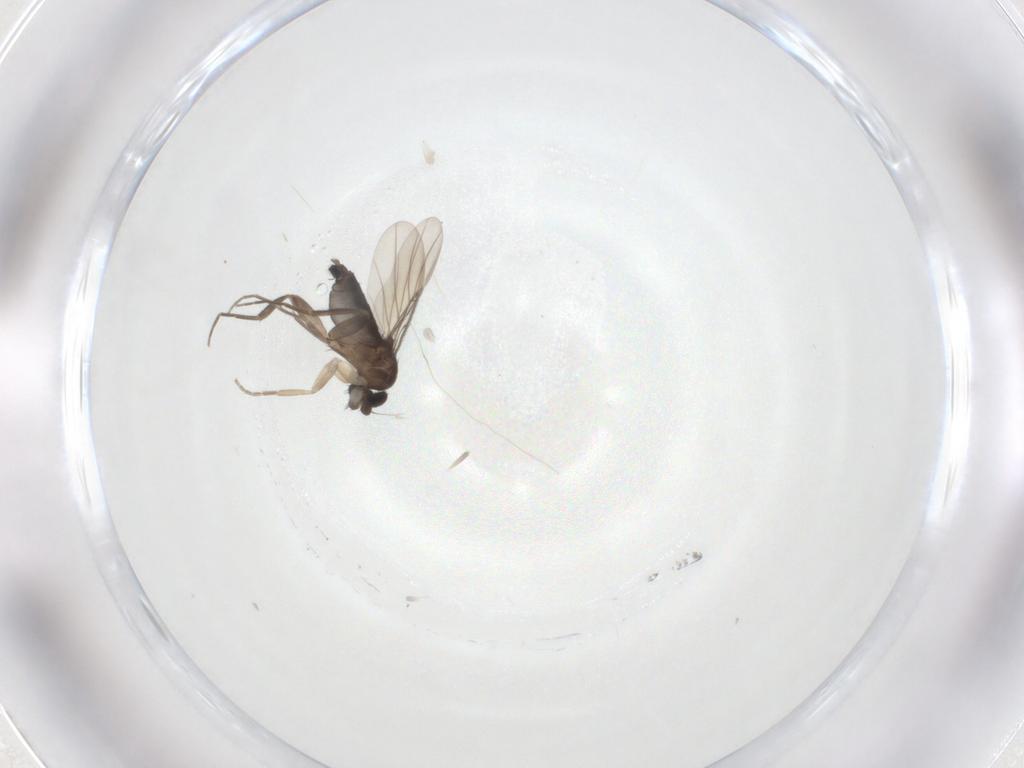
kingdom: Animalia
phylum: Arthropoda
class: Insecta
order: Diptera
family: Phoridae
